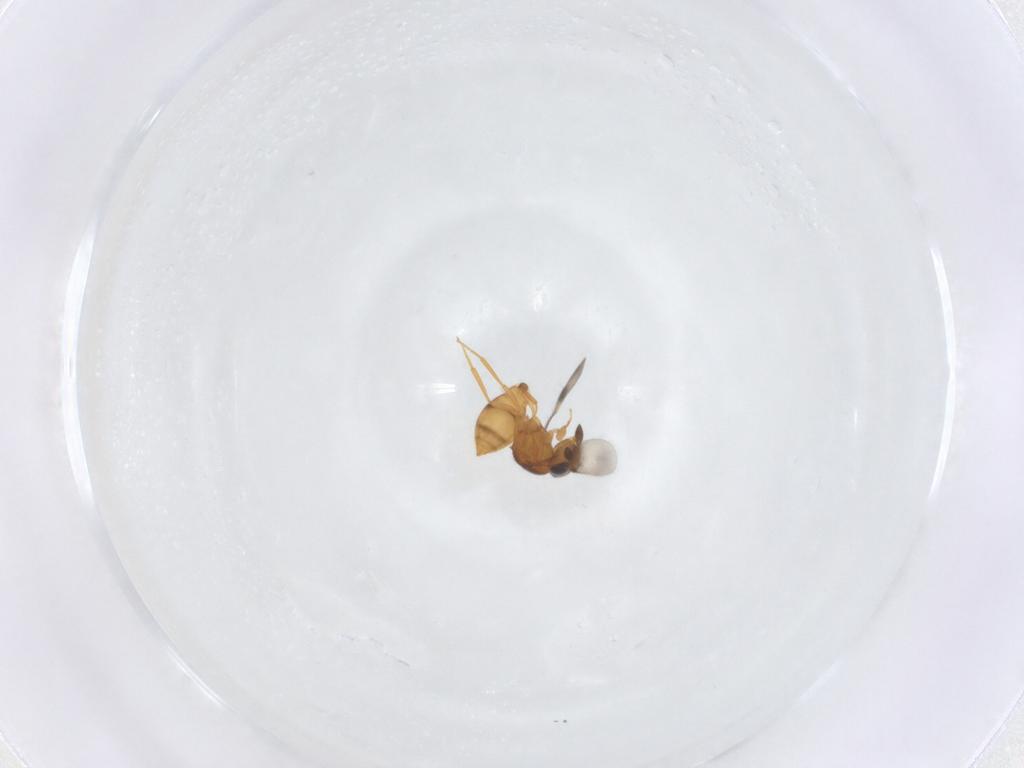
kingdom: Animalia
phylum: Arthropoda
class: Insecta
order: Hymenoptera
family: Scelionidae
